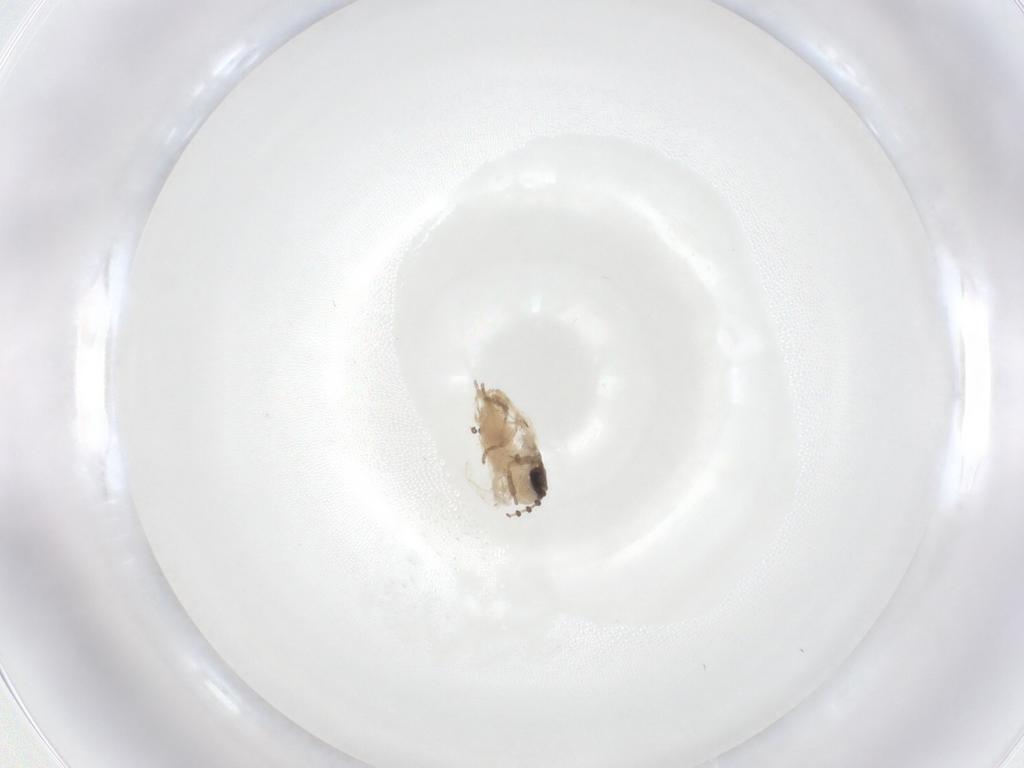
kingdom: Animalia
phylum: Arthropoda
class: Insecta
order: Diptera
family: Psychodidae
